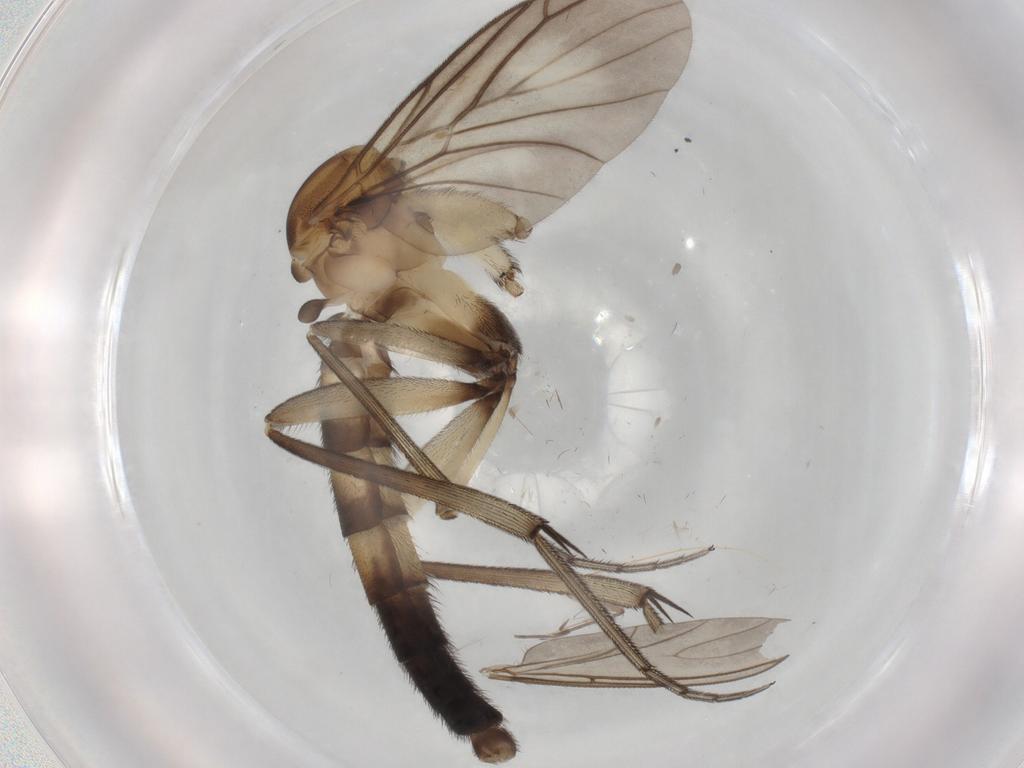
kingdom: Animalia
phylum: Arthropoda
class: Insecta
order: Diptera
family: Keroplatidae
